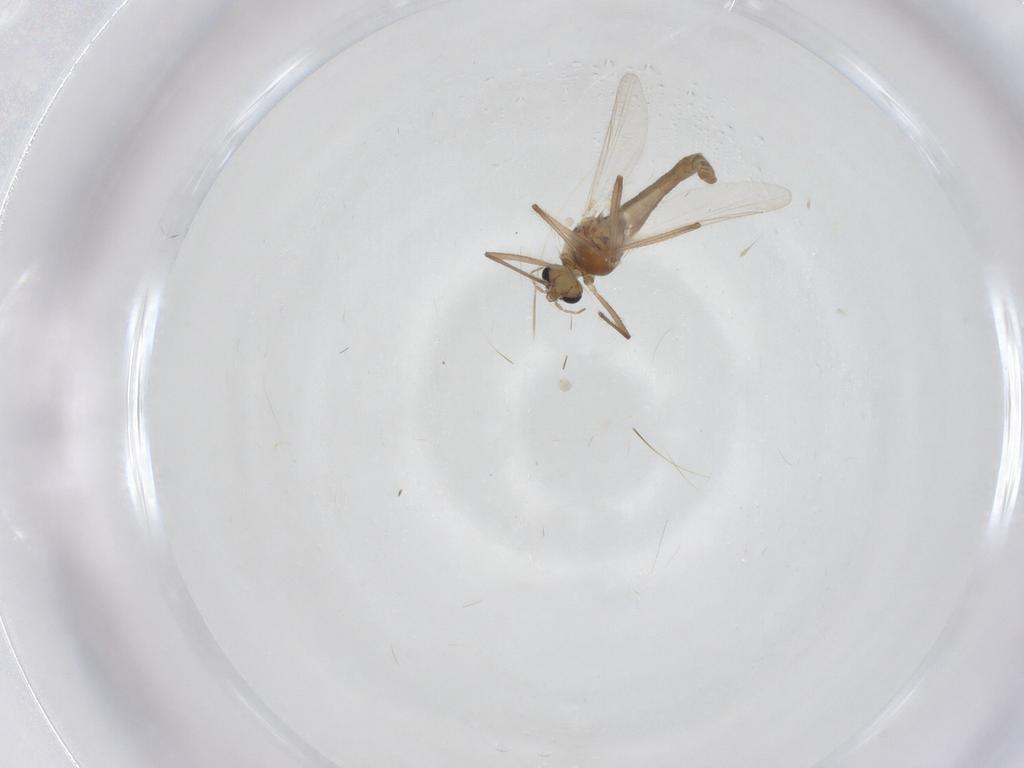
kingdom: Animalia
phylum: Arthropoda
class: Insecta
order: Diptera
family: Chironomidae
